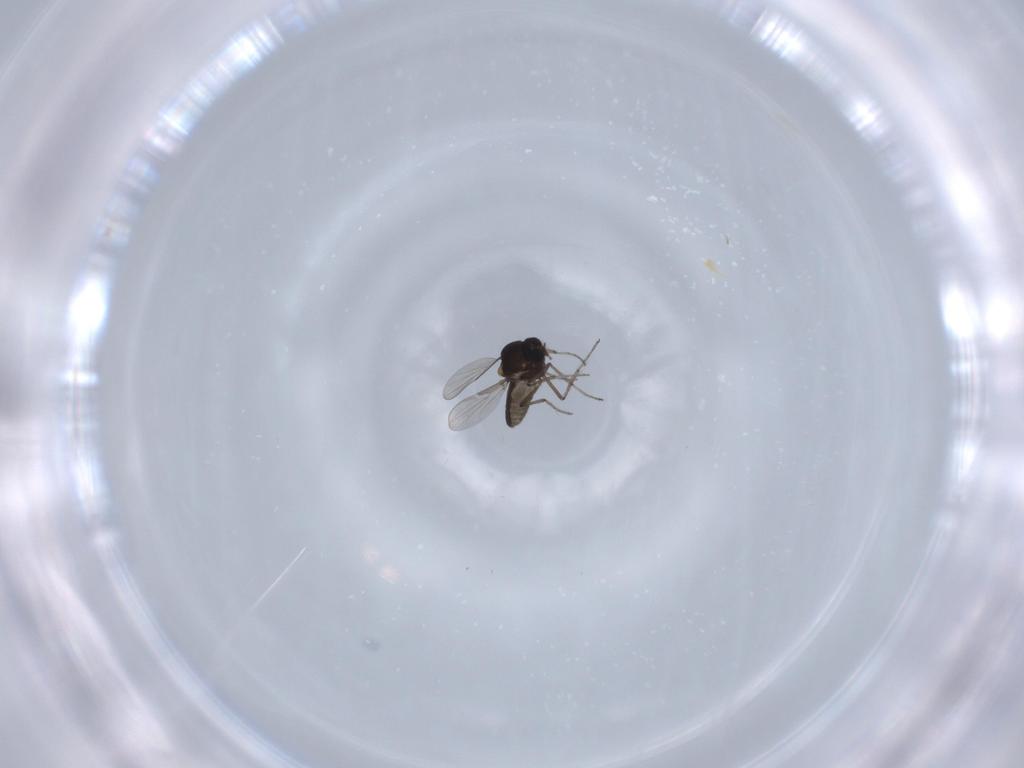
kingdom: Animalia
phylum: Arthropoda
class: Insecta
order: Diptera
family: Ceratopogonidae
